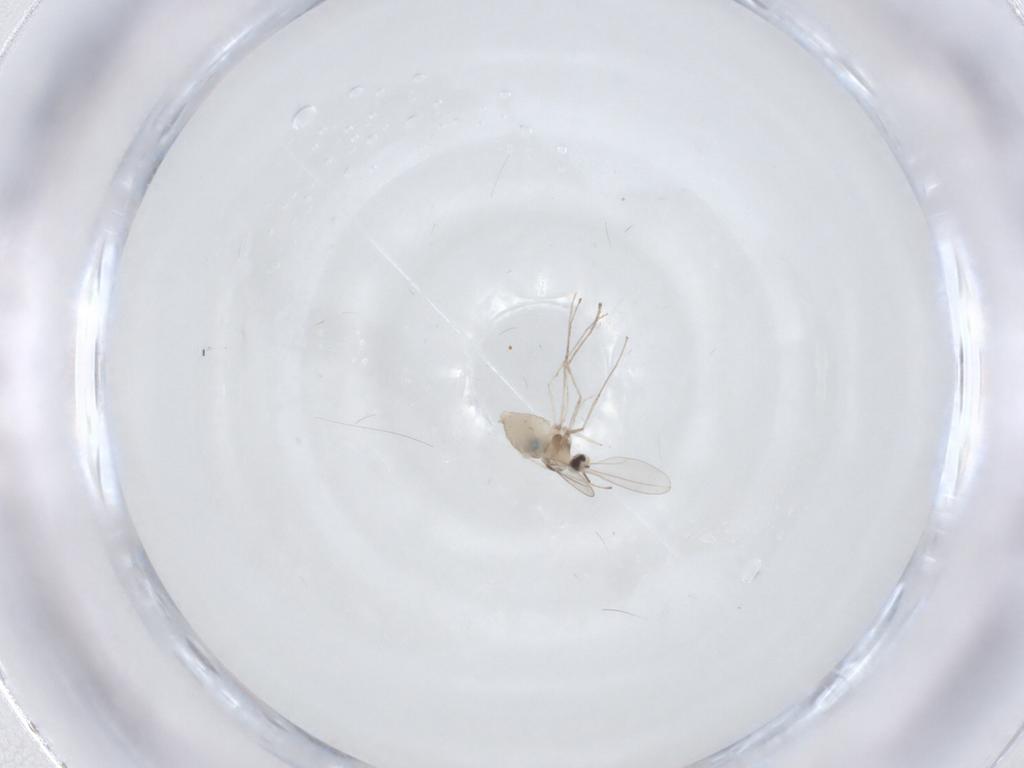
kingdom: Animalia
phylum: Arthropoda
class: Insecta
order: Diptera
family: Cecidomyiidae
